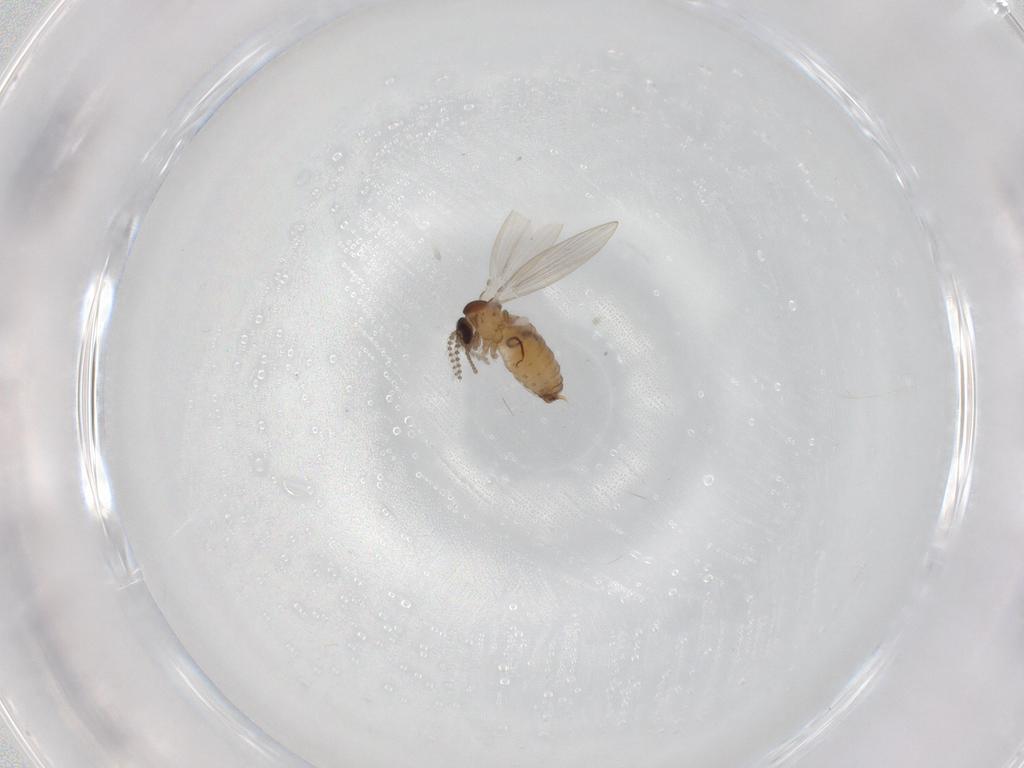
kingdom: Animalia
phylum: Arthropoda
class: Insecta
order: Diptera
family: Psychodidae
